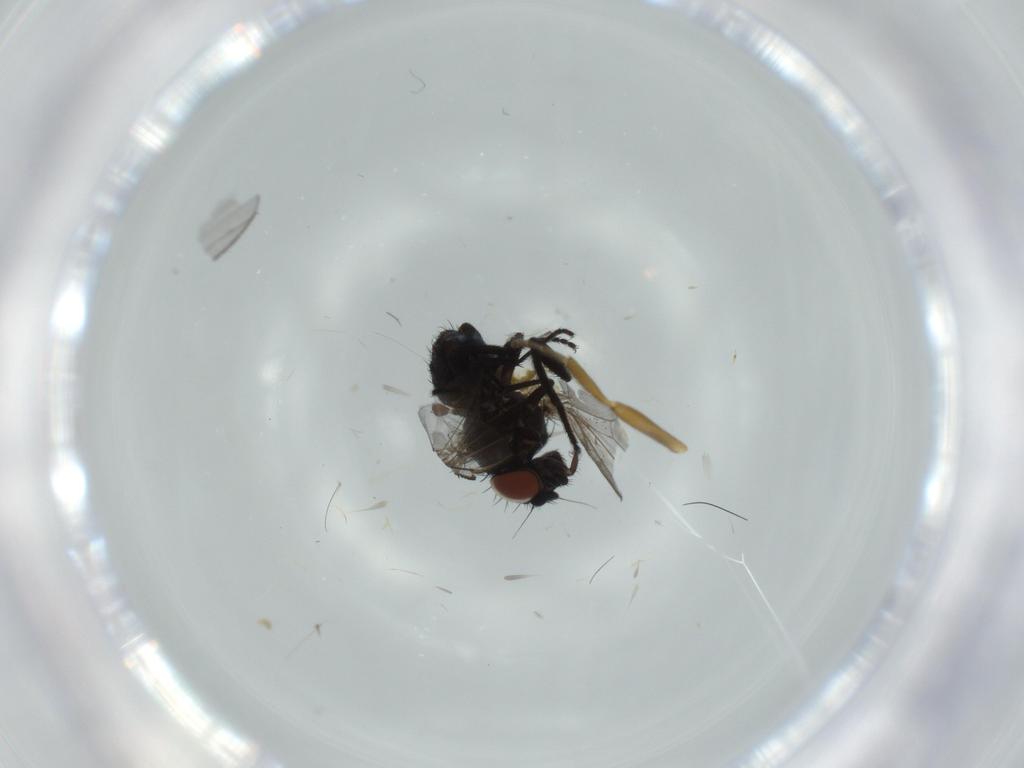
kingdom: Animalia
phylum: Arthropoda
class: Insecta
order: Diptera
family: Milichiidae
